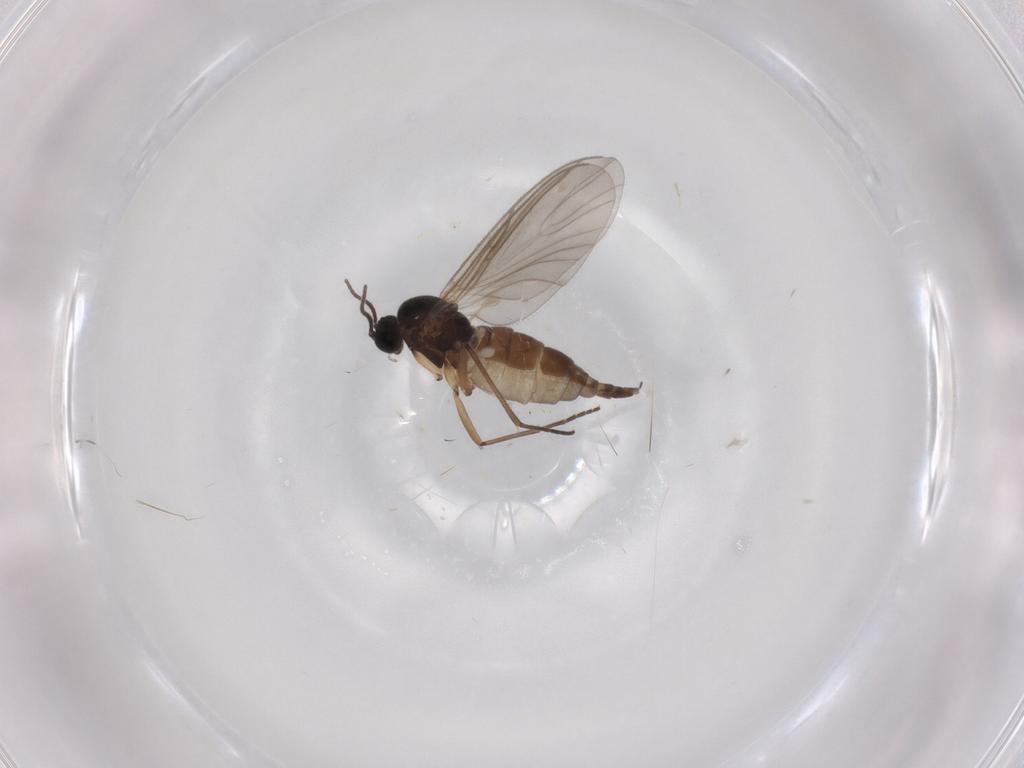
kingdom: Animalia
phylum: Arthropoda
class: Insecta
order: Diptera
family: Sciaridae
